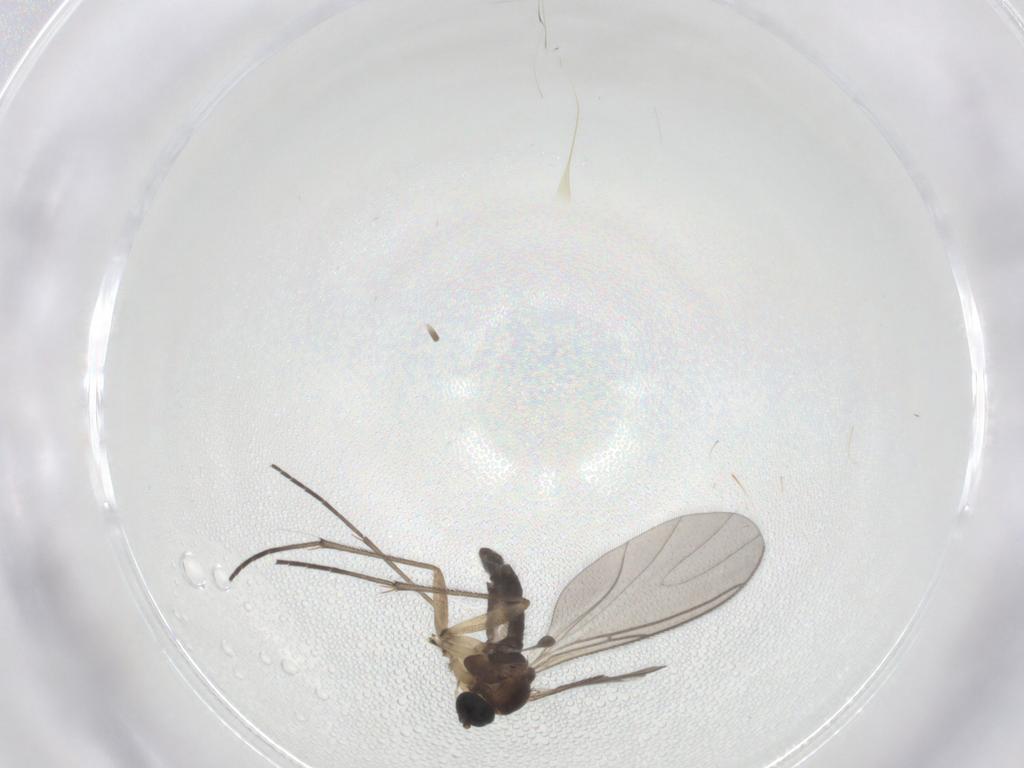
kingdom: Animalia
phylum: Arthropoda
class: Insecta
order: Diptera
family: Sciaridae
